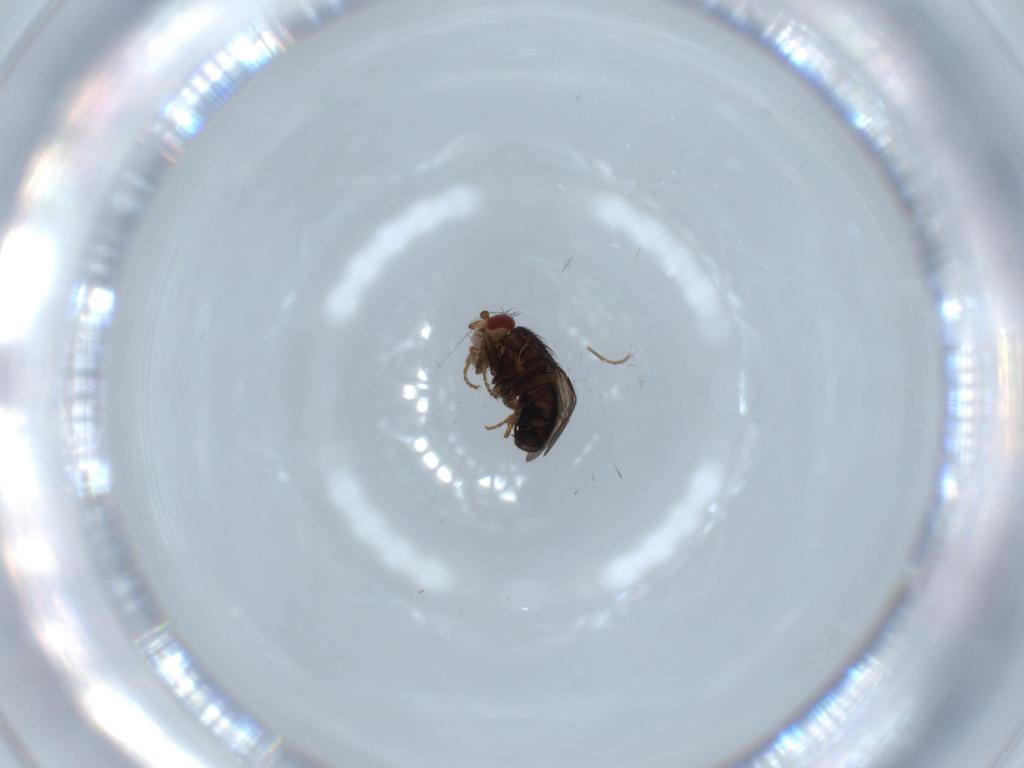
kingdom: Animalia
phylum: Arthropoda
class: Insecta
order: Diptera
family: Sphaeroceridae
